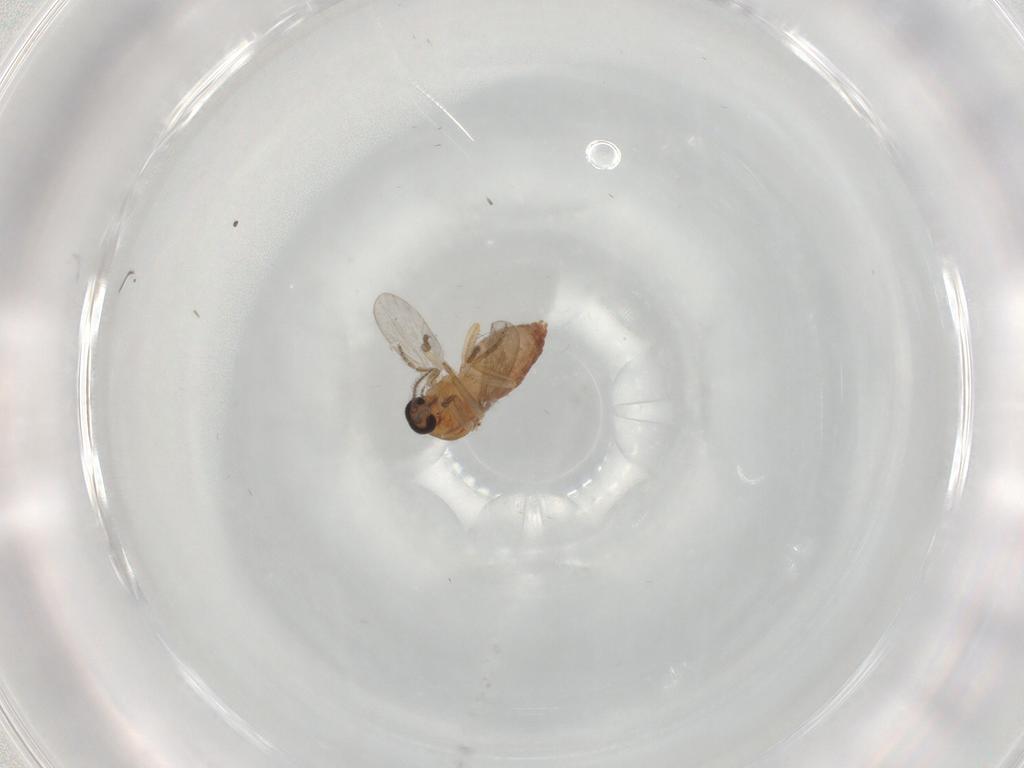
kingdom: Animalia
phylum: Arthropoda
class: Insecta
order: Diptera
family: Ceratopogonidae
